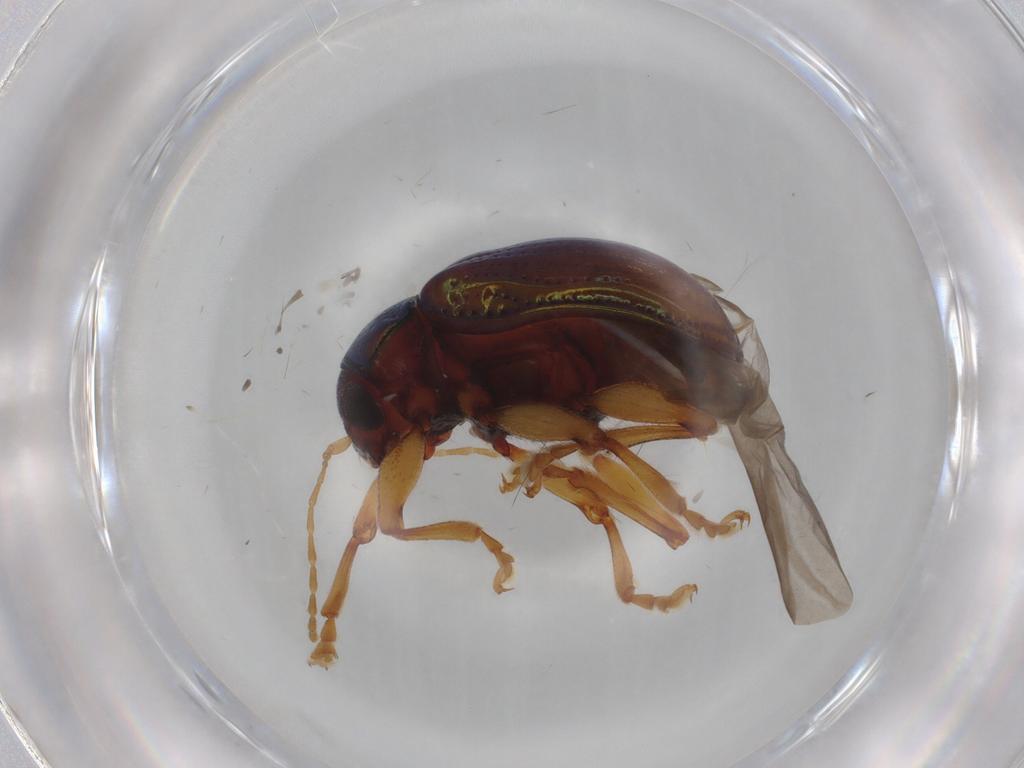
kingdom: Animalia
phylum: Arthropoda
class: Insecta
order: Coleoptera
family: Chrysomelidae
